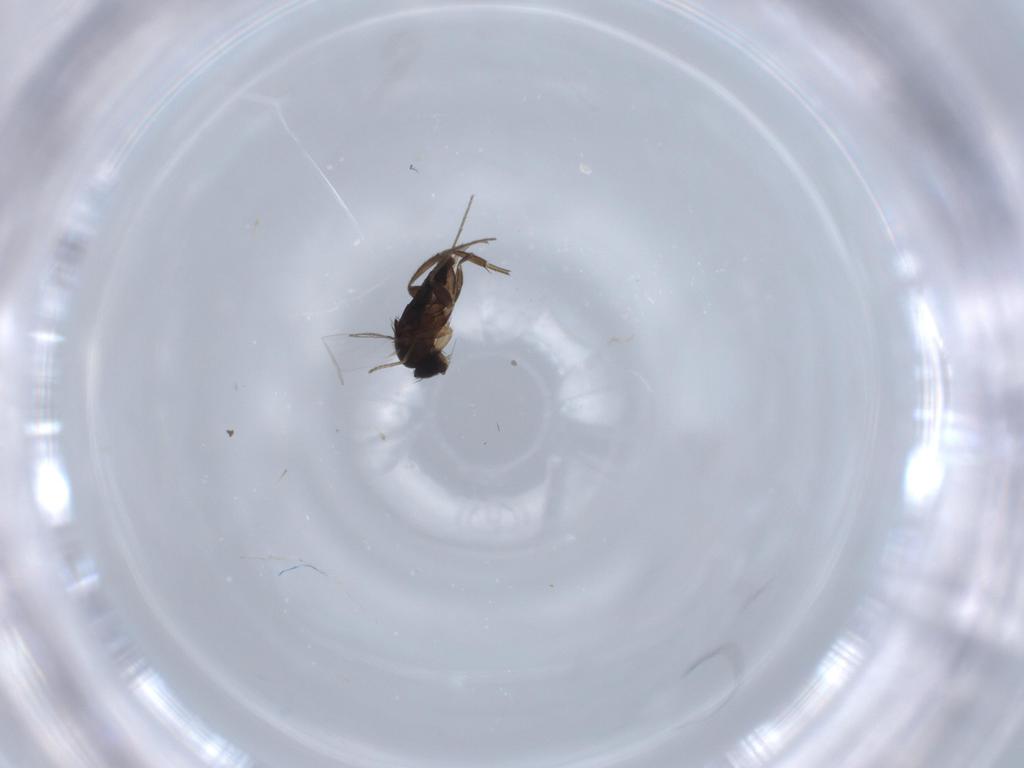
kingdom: Animalia
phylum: Arthropoda
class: Insecta
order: Diptera
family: Phoridae
